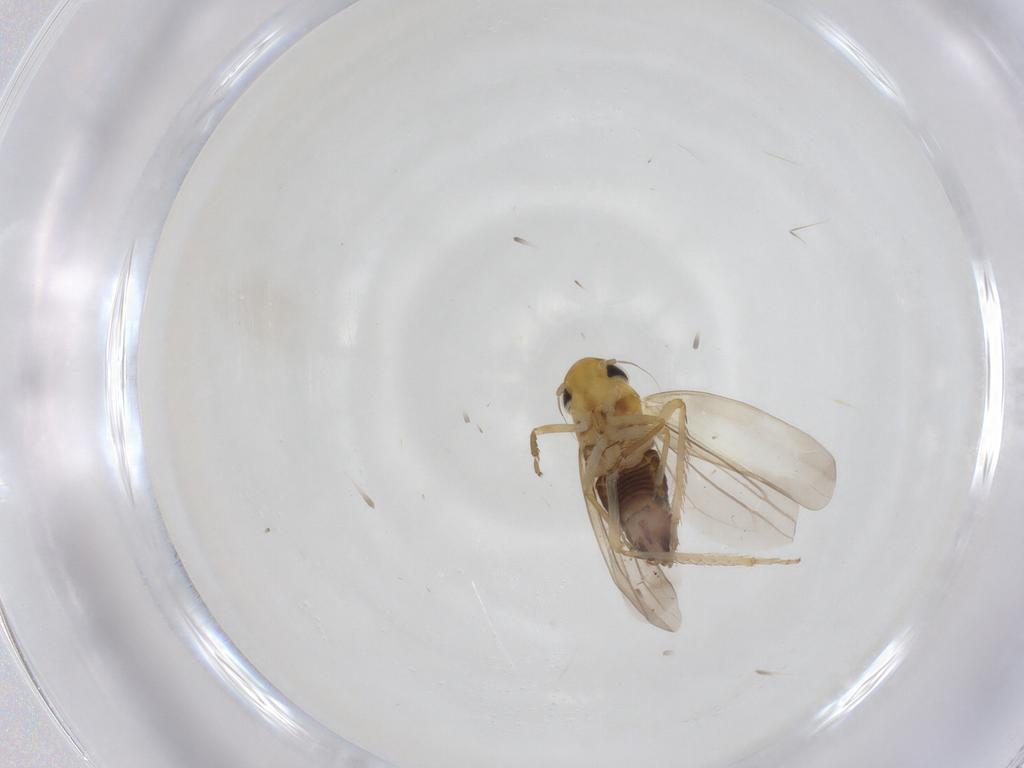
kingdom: Animalia
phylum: Arthropoda
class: Insecta
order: Hemiptera
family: Cicadellidae
